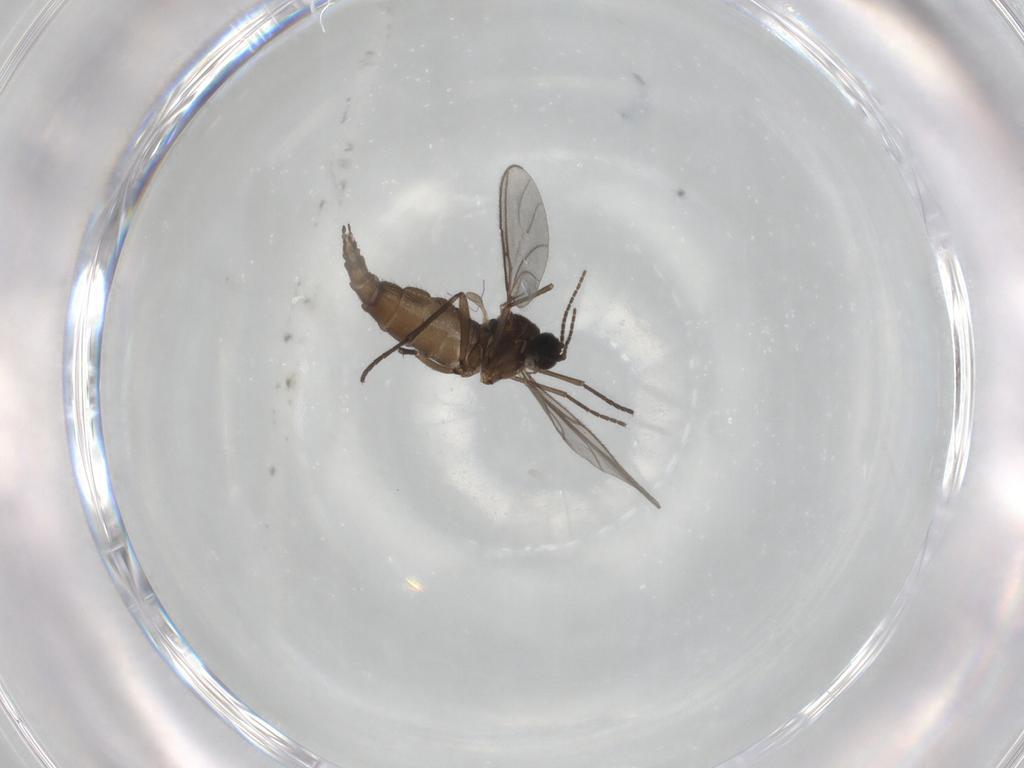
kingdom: Animalia
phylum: Arthropoda
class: Insecta
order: Diptera
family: Sciaridae
